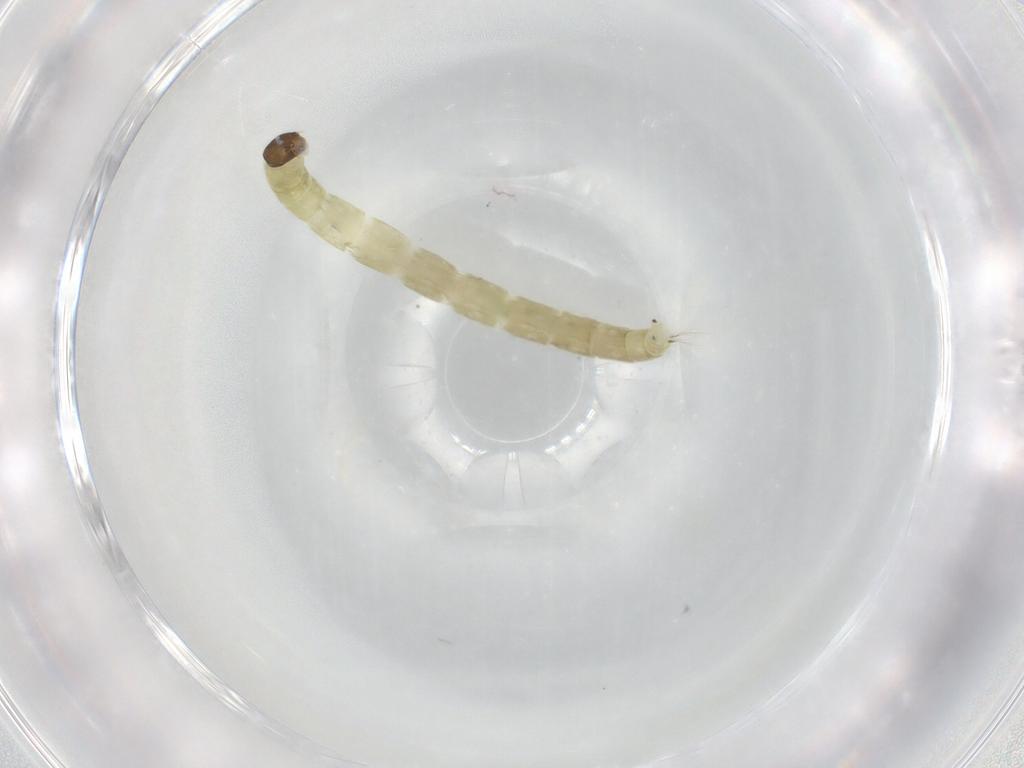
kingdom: Animalia
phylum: Arthropoda
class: Insecta
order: Diptera
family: Chironomidae
